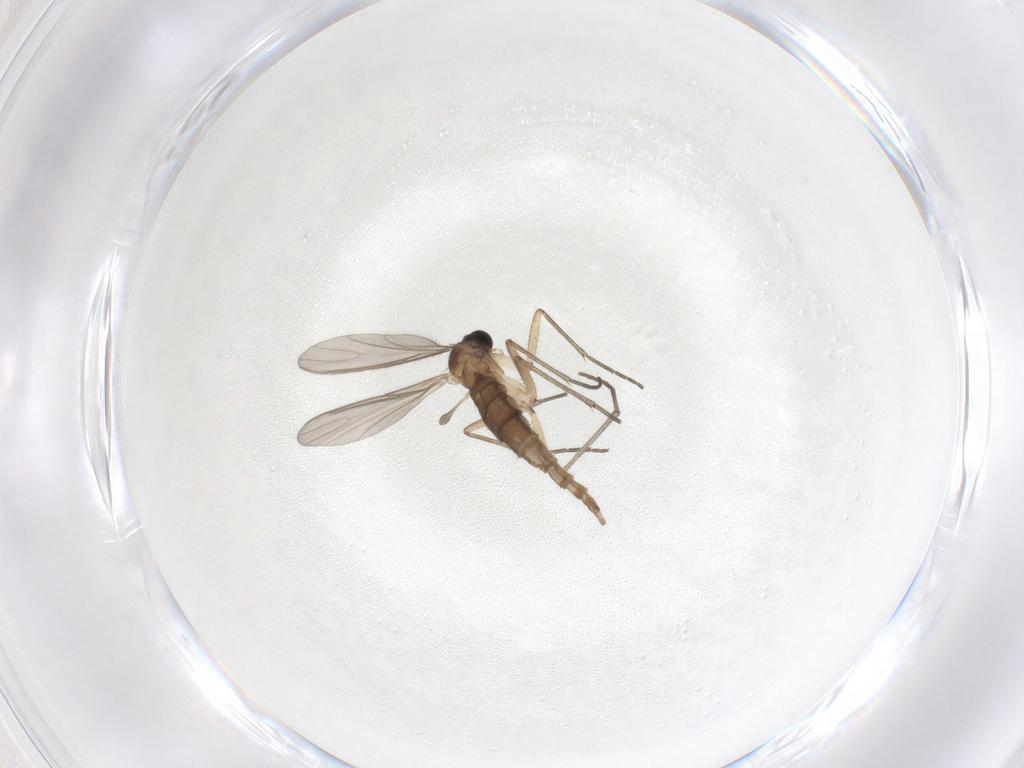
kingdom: Animalia
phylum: Arthropoda
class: Insecta
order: Diptera
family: Sciaridae
